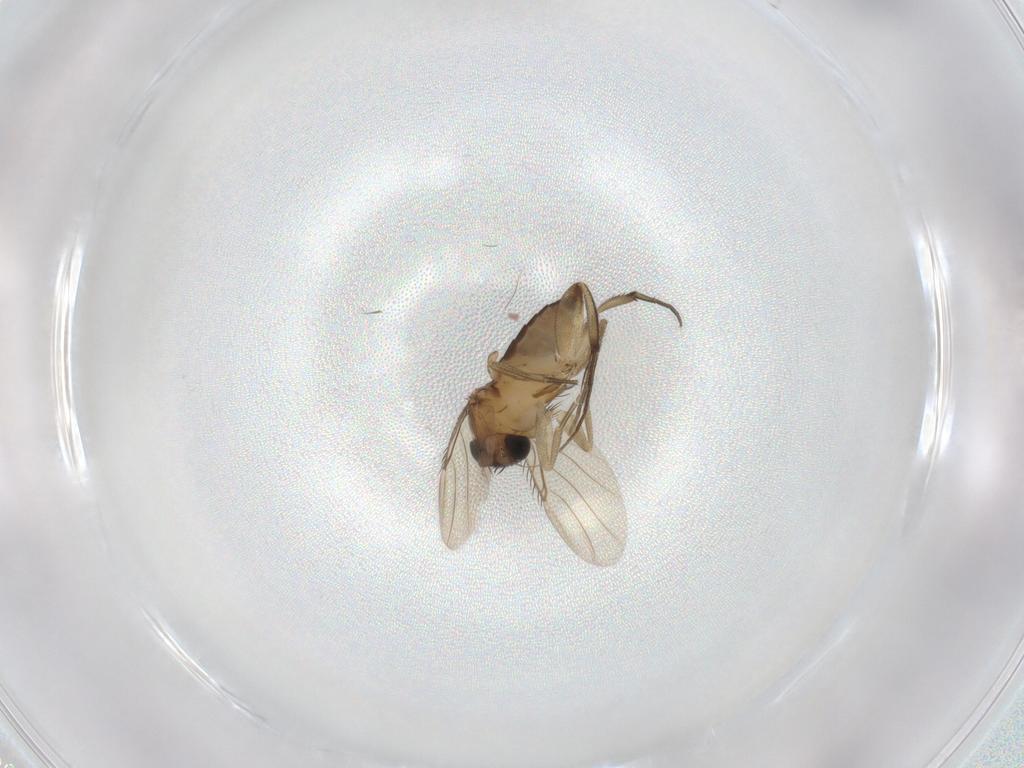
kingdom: Animalia
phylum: Arthropoda
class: Insecta
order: Diptera
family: Phoridae
